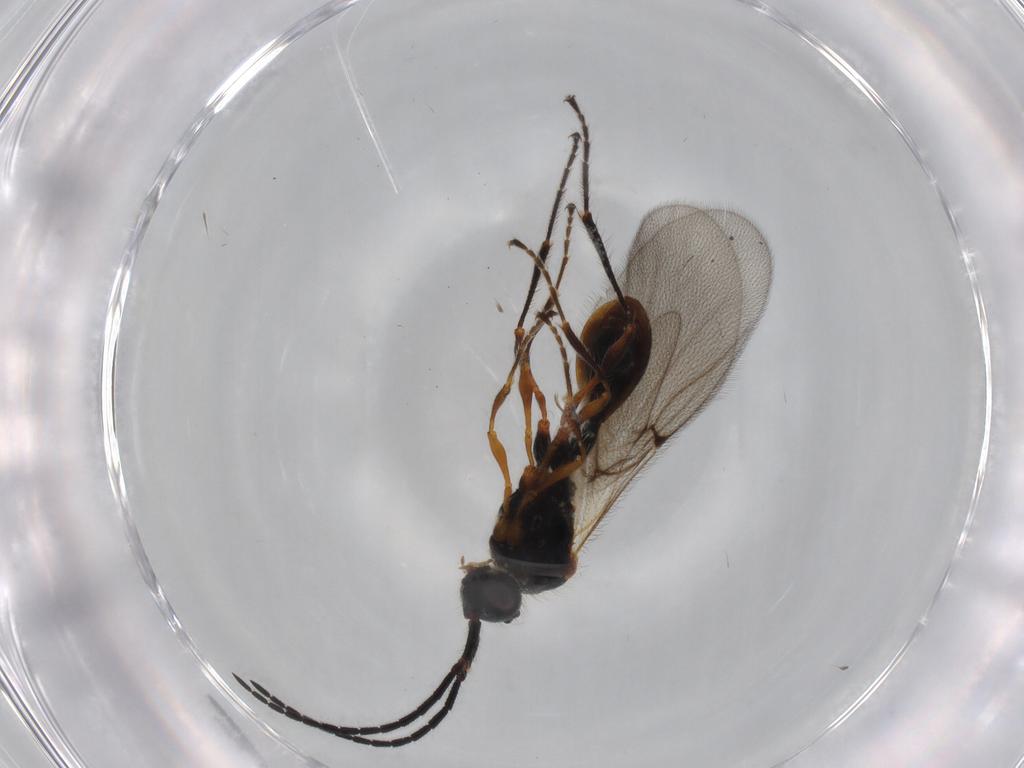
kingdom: Animalia
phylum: Arthropoda
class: Insecta
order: Hymenoptera
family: Diapriidae
